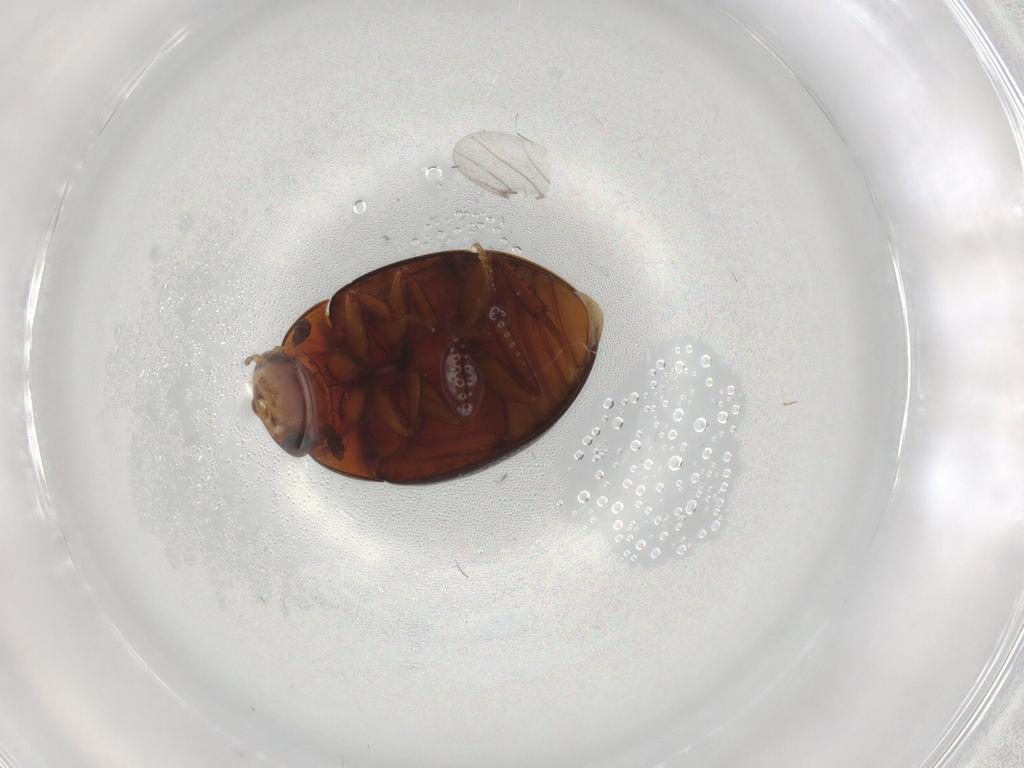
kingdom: Animalia
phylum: Arthropoda
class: Insecta
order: Coleoptera
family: Hydrophilidae
